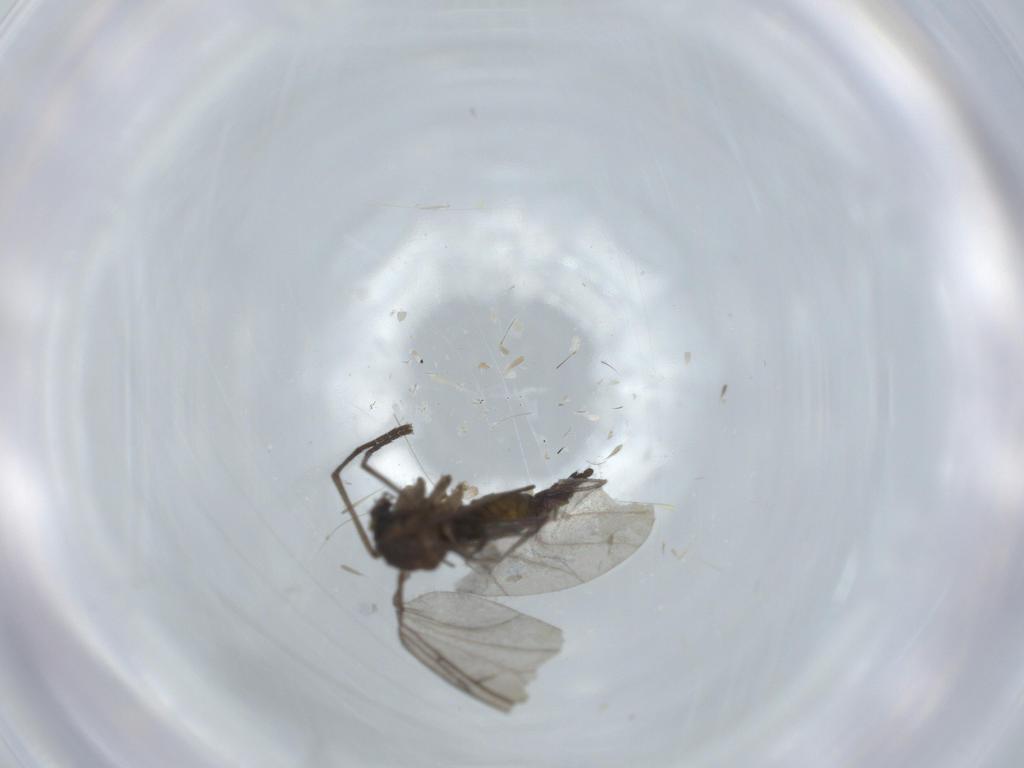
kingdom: Animalia
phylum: Arthropoda
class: Insecta
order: Diptera
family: Sciaridae
